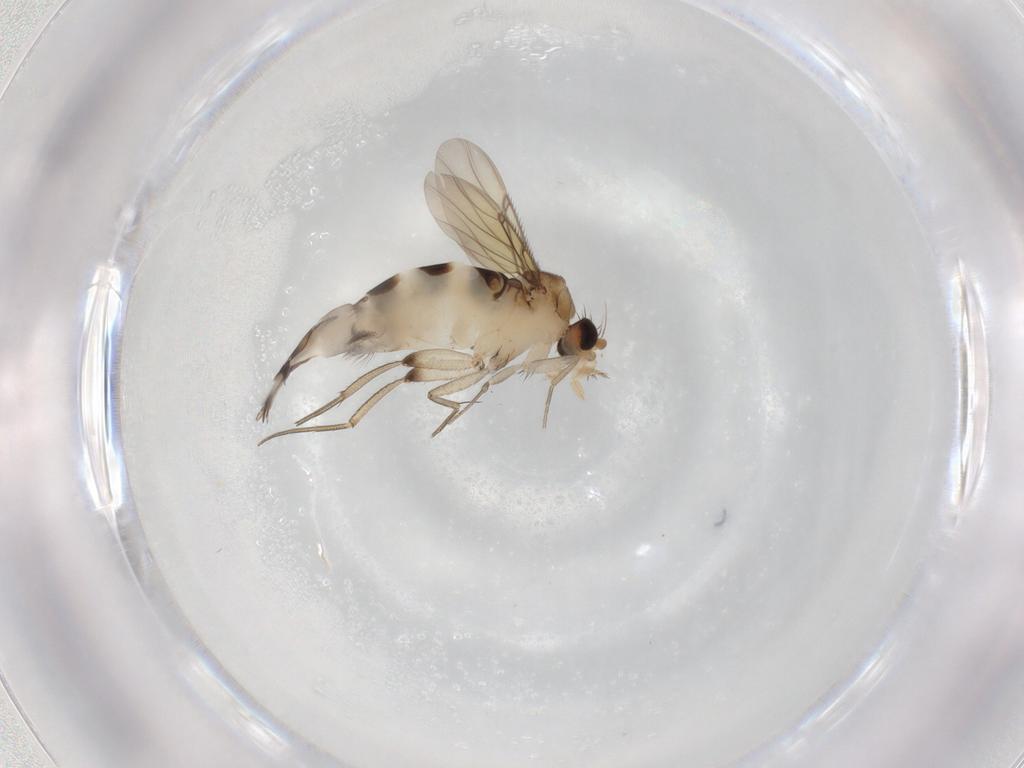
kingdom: Animalia
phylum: Arthropoda
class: Insecta
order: Diptera
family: Phoridae
